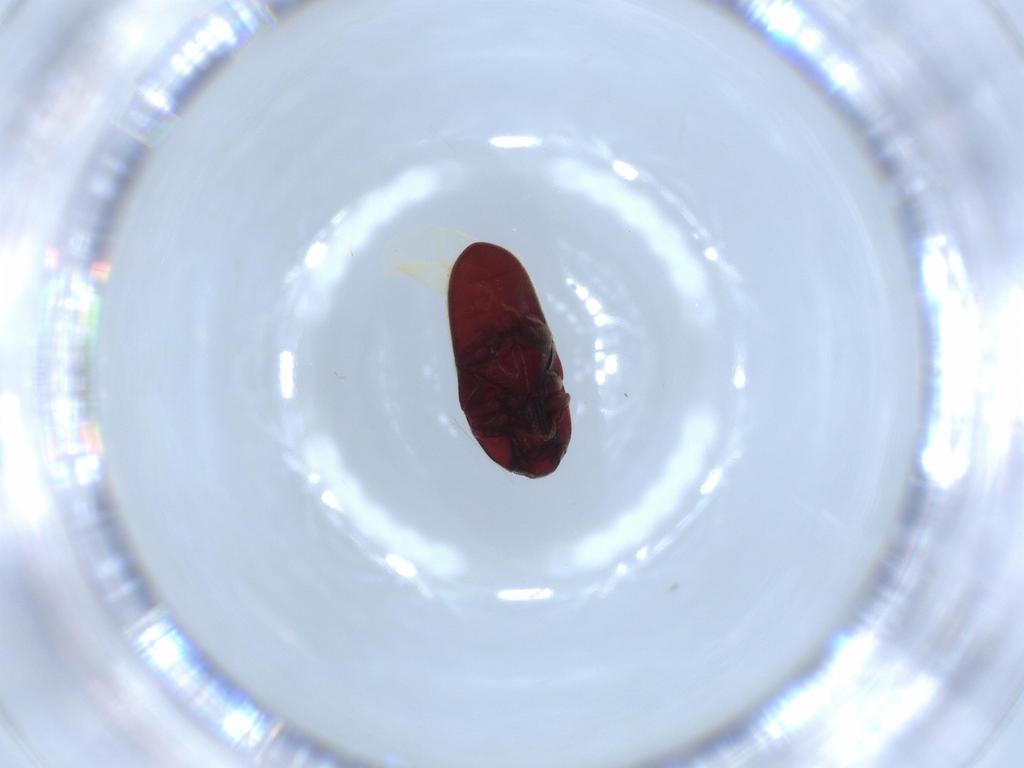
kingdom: Animalia
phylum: Arthropoda
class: Insecta
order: Coleoptera
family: Throscidae
